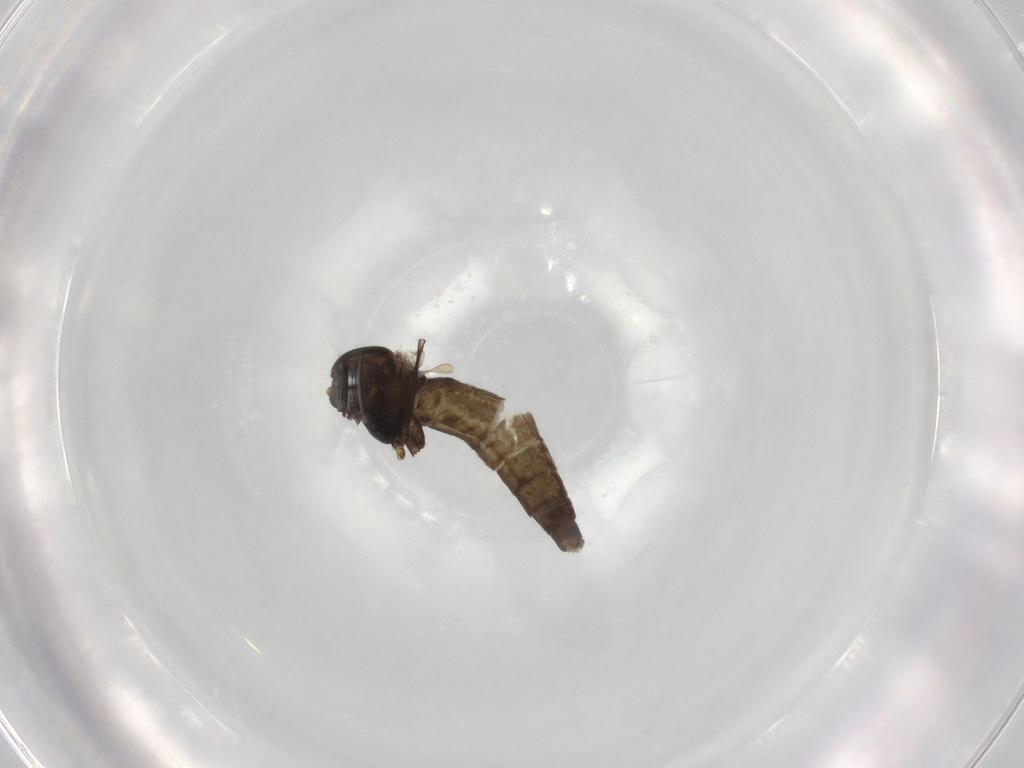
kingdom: Animalia
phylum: Arthropoda
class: Insecta
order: Diptera
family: Chironomidae
